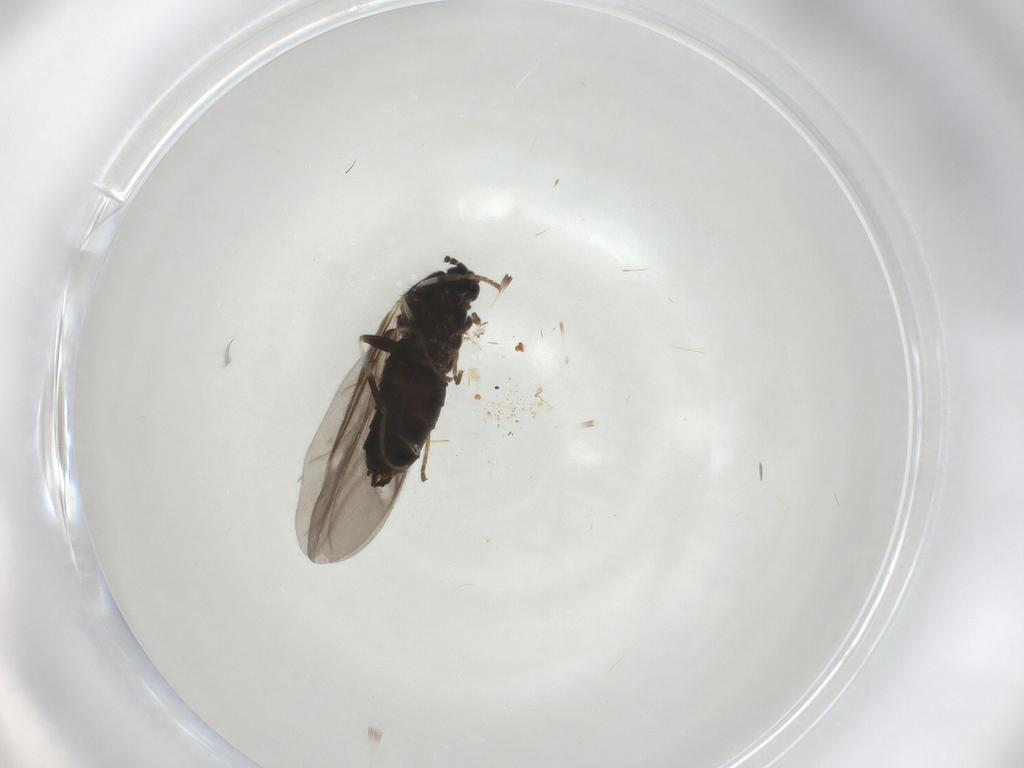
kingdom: Animalia
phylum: Arthropoda
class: Insecta
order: Diptera
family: Scatopsidae
